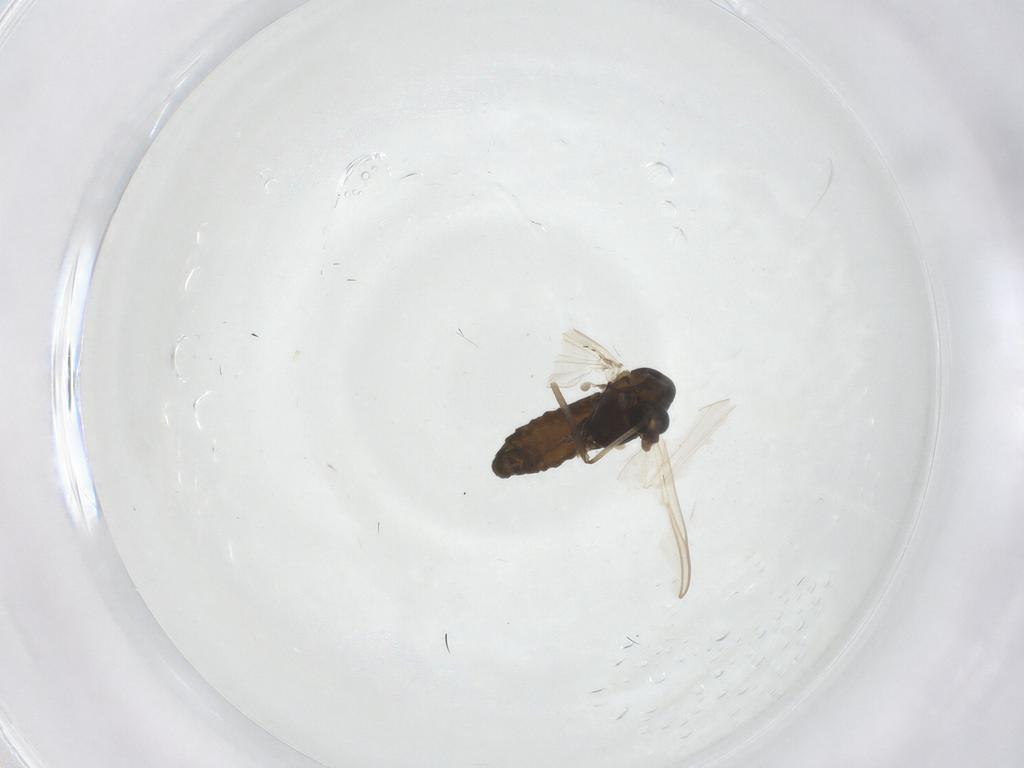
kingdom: Animalia
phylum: Arthropoda
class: Insecta
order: Diptera
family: Chironomidae
